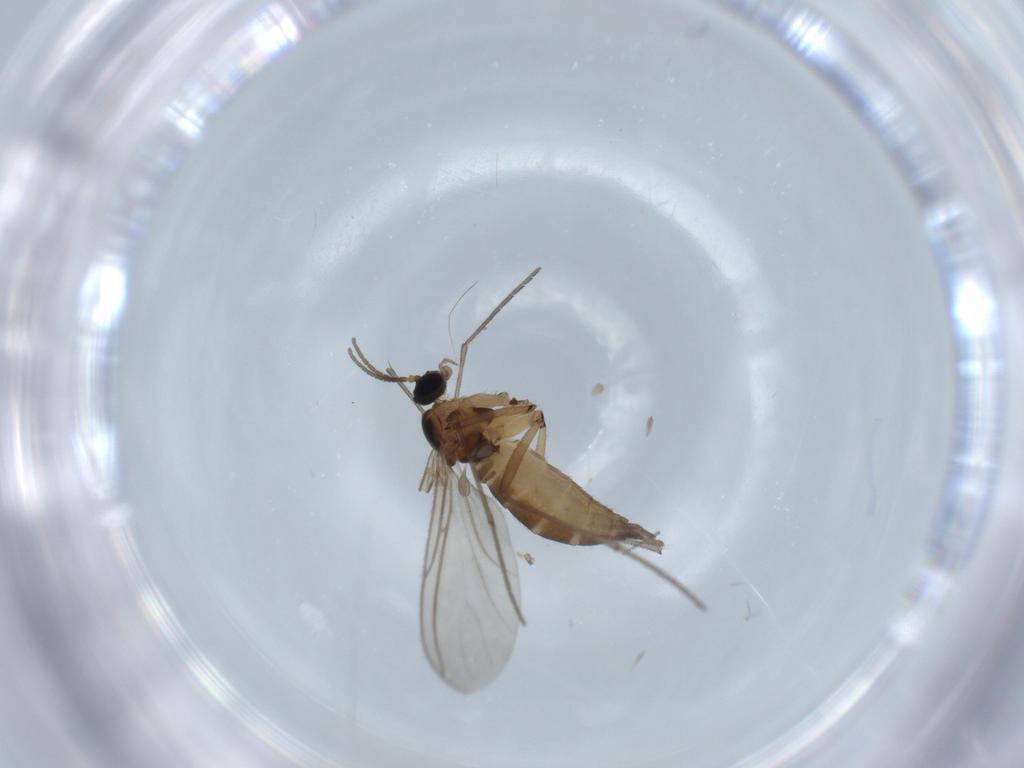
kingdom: Animalia
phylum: Arthropoda
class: Insecta
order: Diptera
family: Sciaridae
